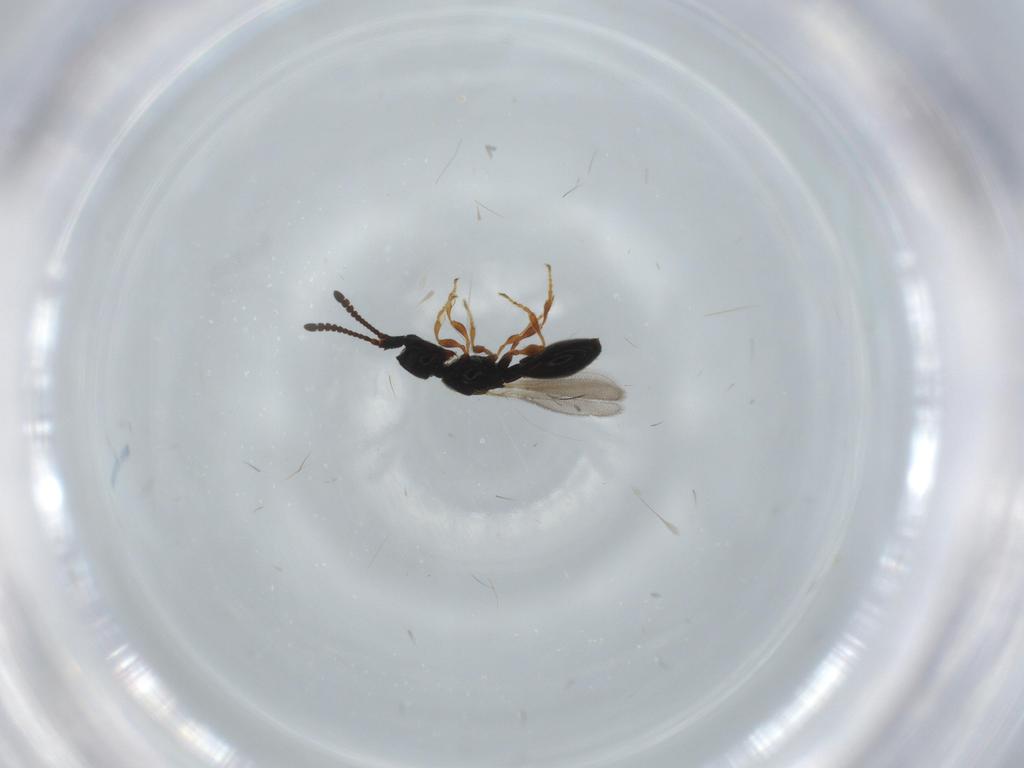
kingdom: Animalia
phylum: Arthropoda
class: Insecta
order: Hymenoptera
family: Diapriidae
